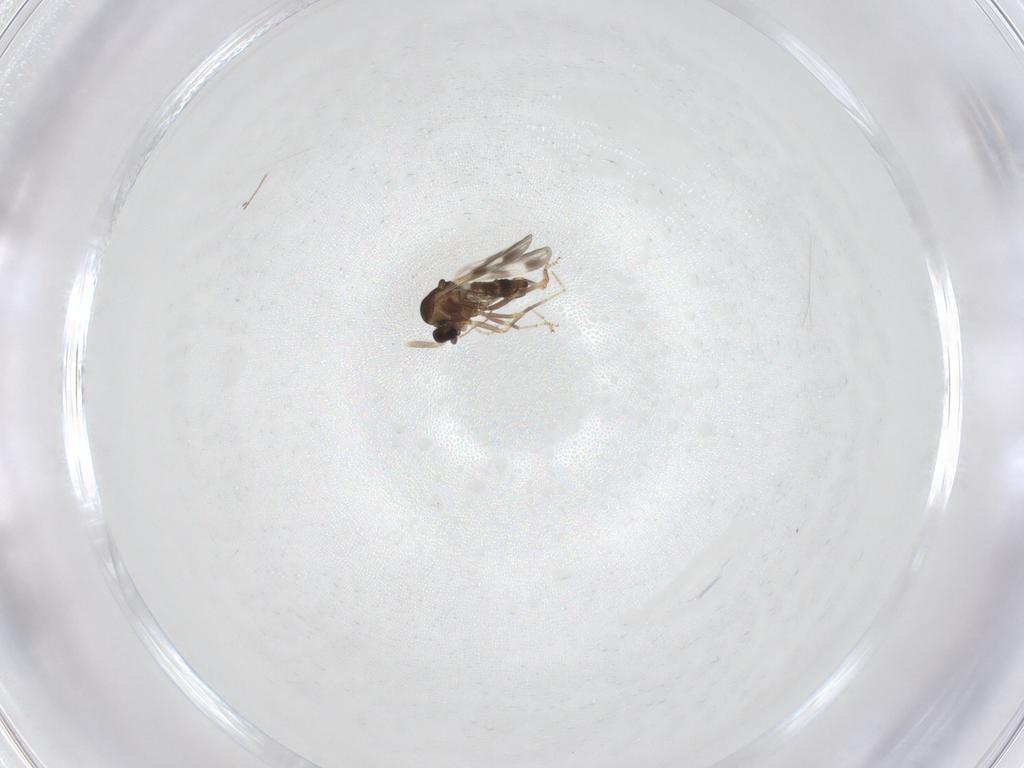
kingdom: Animalia
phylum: Arthropoda
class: Insecta
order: Diptera
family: Ceratopogonidae
